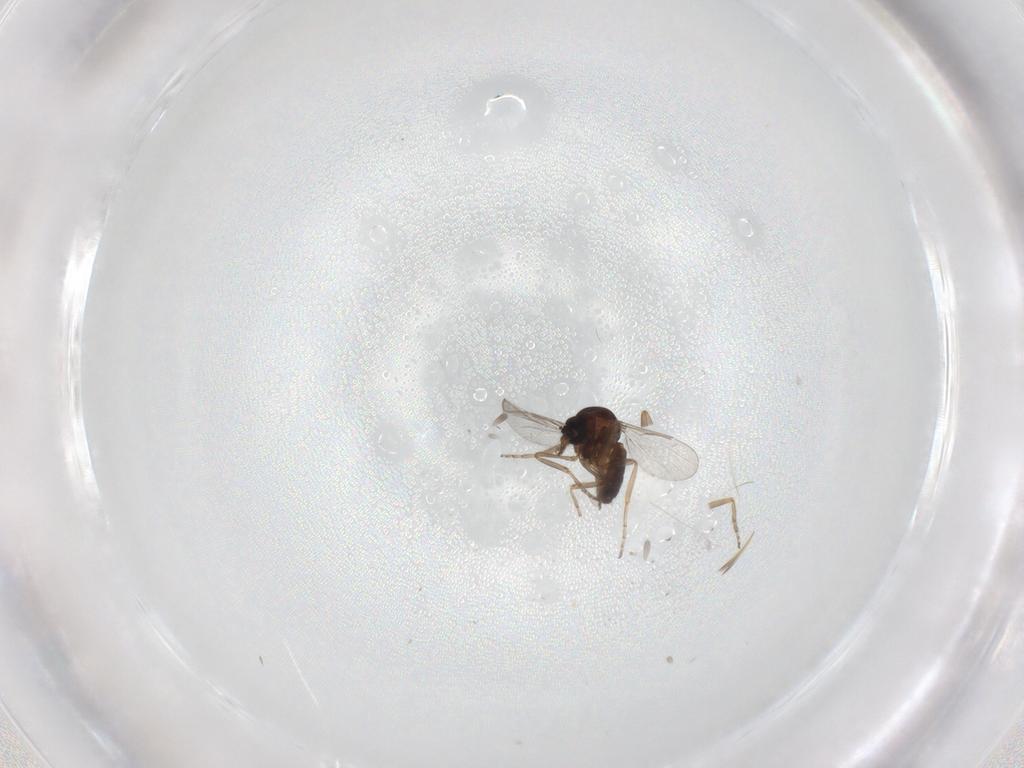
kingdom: Animalia
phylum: Arthropoda
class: Insecta
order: Diptera
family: Ceratopogonidae
